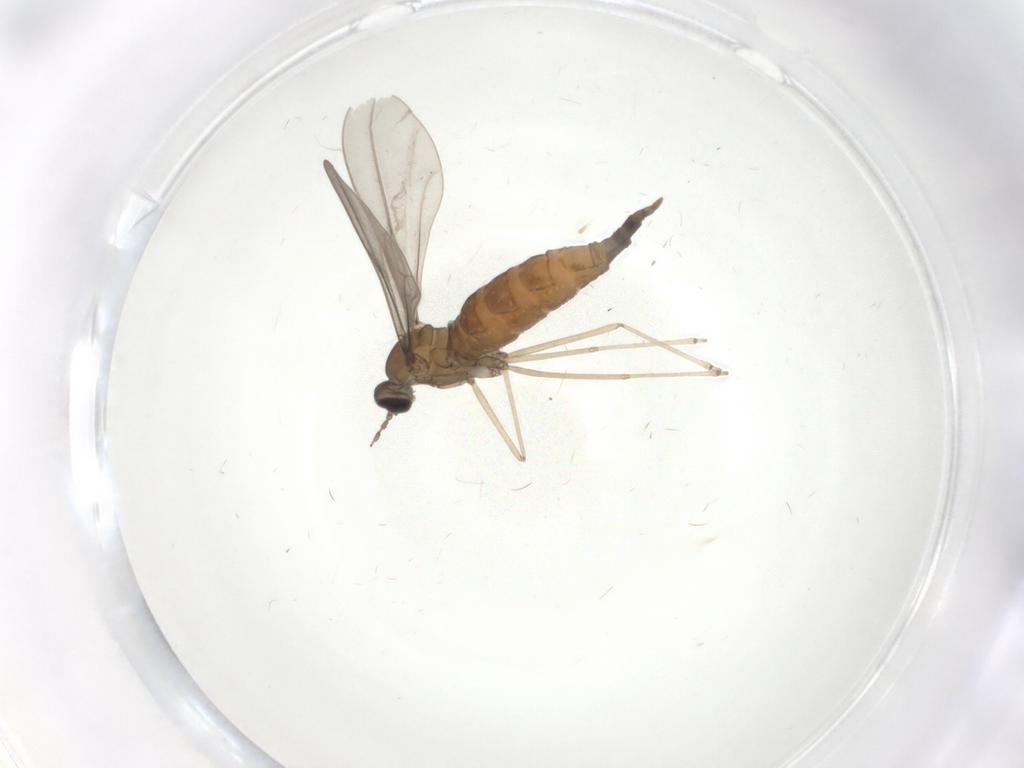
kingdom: Animalia
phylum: Arthropoda
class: Insecta
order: Diptera
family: Cecidomyiidae
